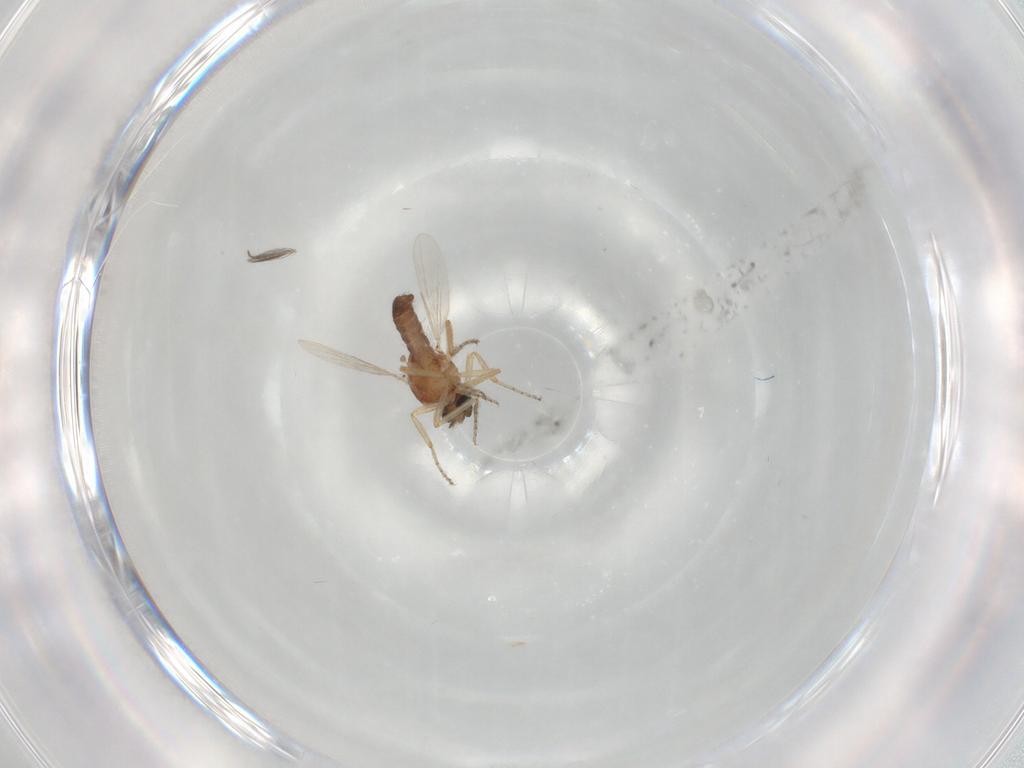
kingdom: Animalia
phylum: Arthropoda
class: Insecta
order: Diptera
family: Ceratopogonidae
